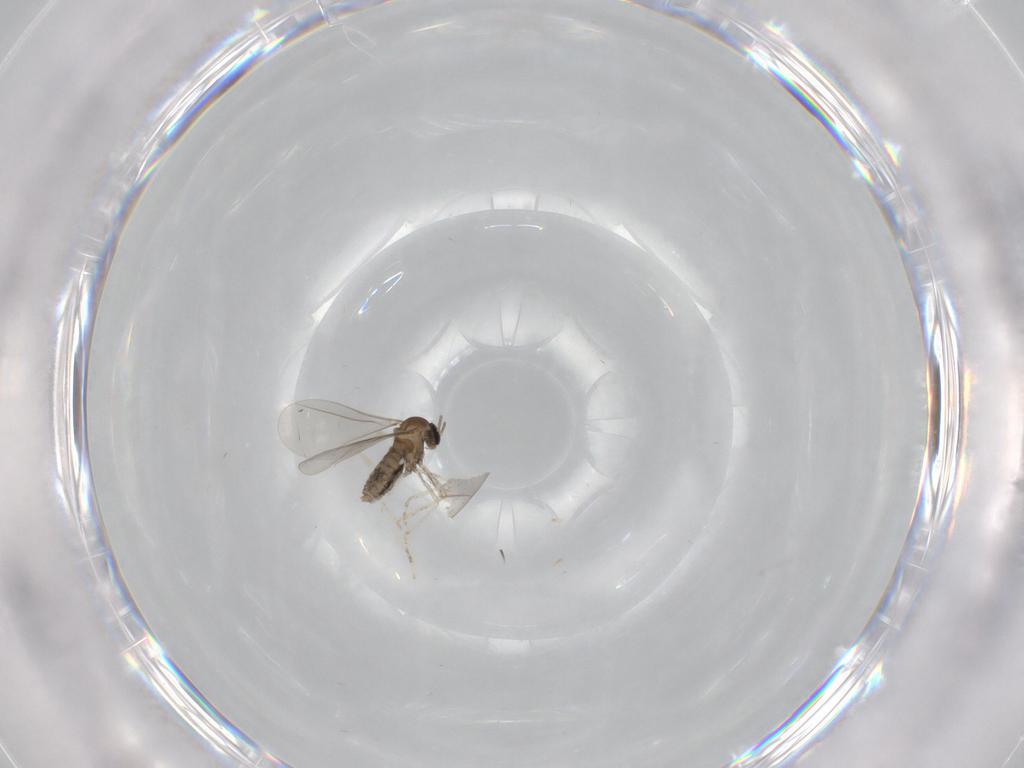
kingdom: Animalia
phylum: Arthropoda
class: Insecta
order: Diptera
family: Cecidomyiidae
